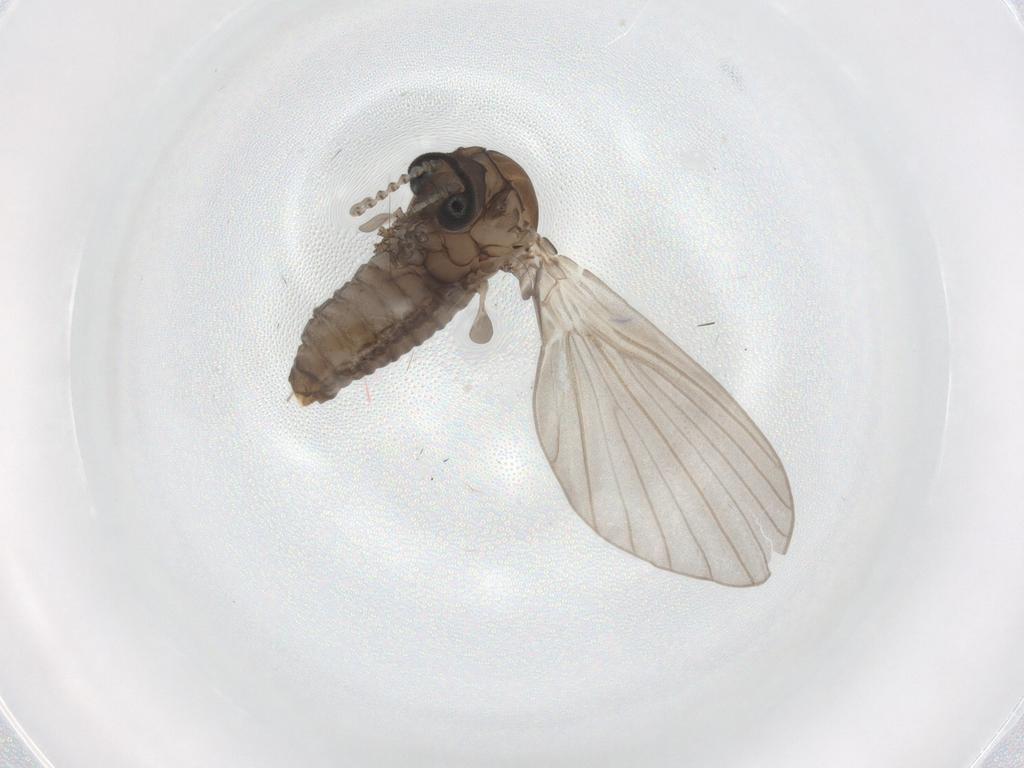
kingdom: Animalia
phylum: Arthropoda
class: Insecta
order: Diptera
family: Psychodidae
